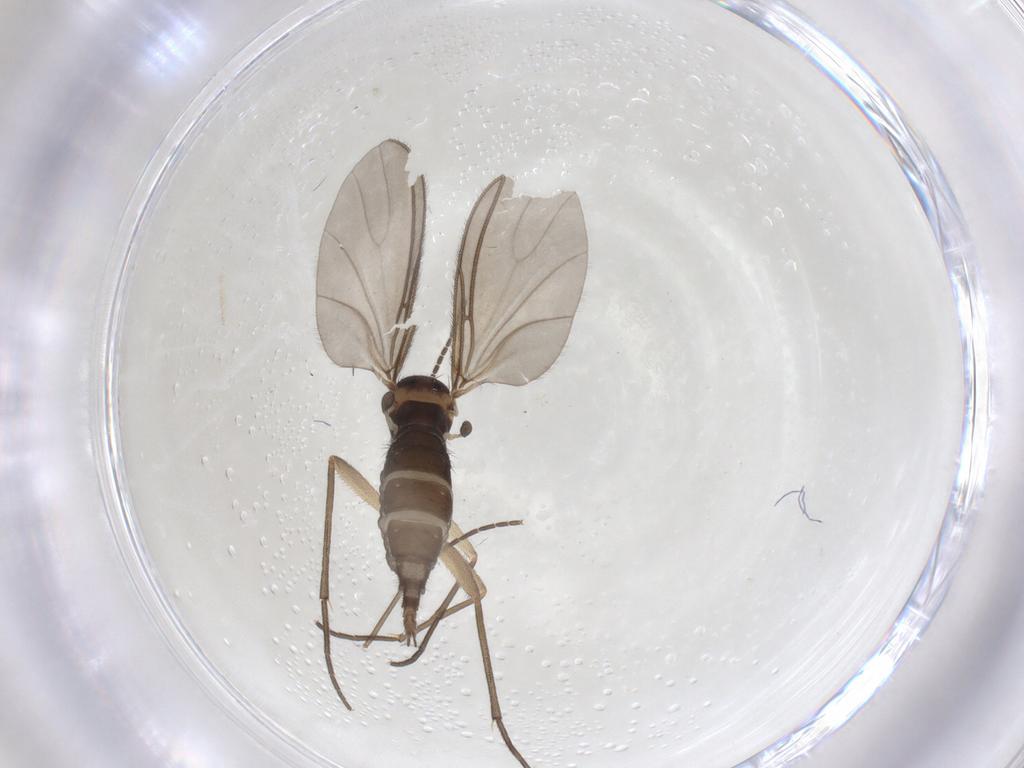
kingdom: Animalia
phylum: Arthropoda
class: Insecta
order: Diptera
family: Sciaridae
